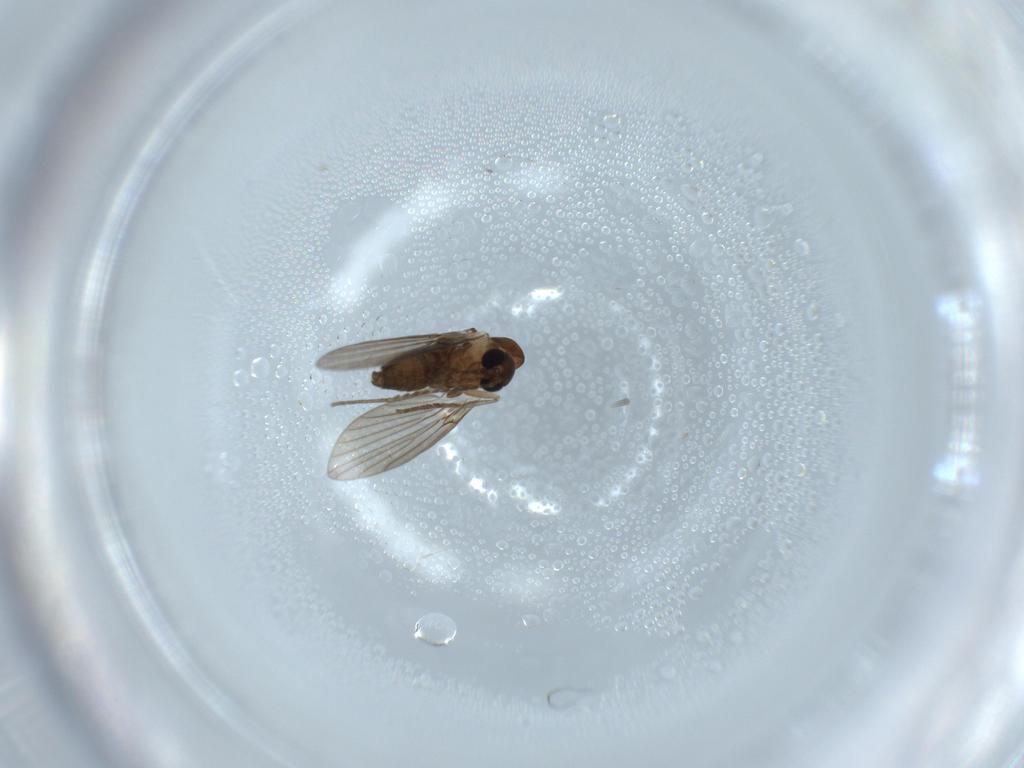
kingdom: Animalia
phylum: Arthropoda
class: Insecta
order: Diptera
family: Psychodidae
